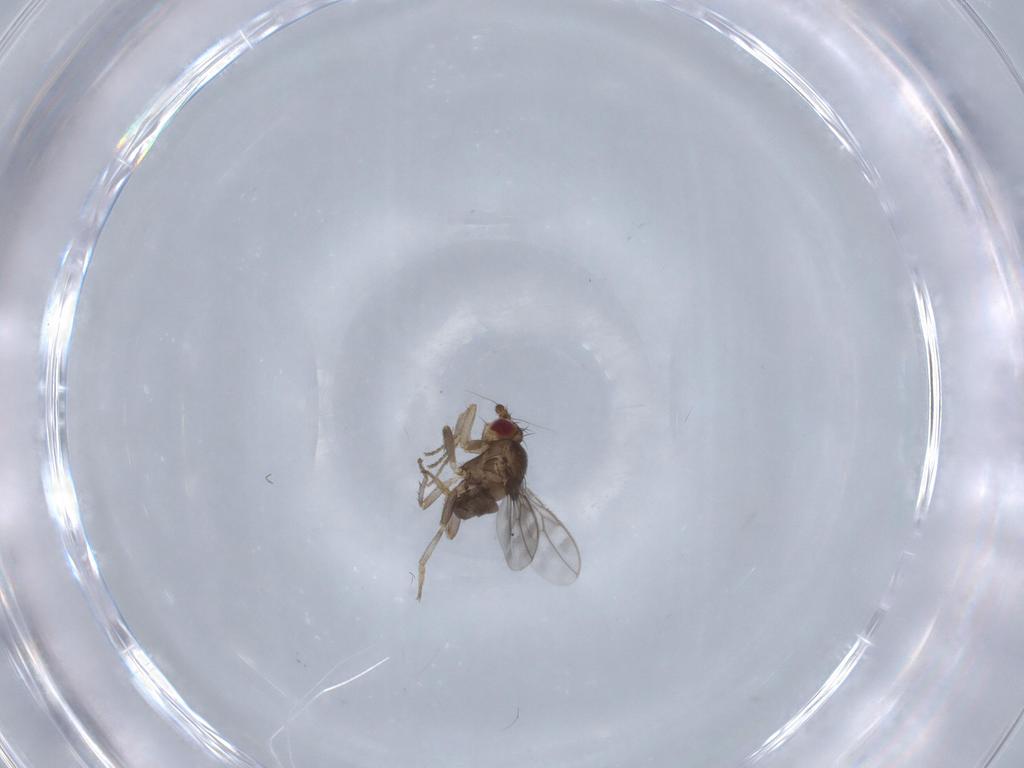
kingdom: Animalia
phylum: Arthropoda
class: Insecta
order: Diptera
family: Sphaeroceridae
